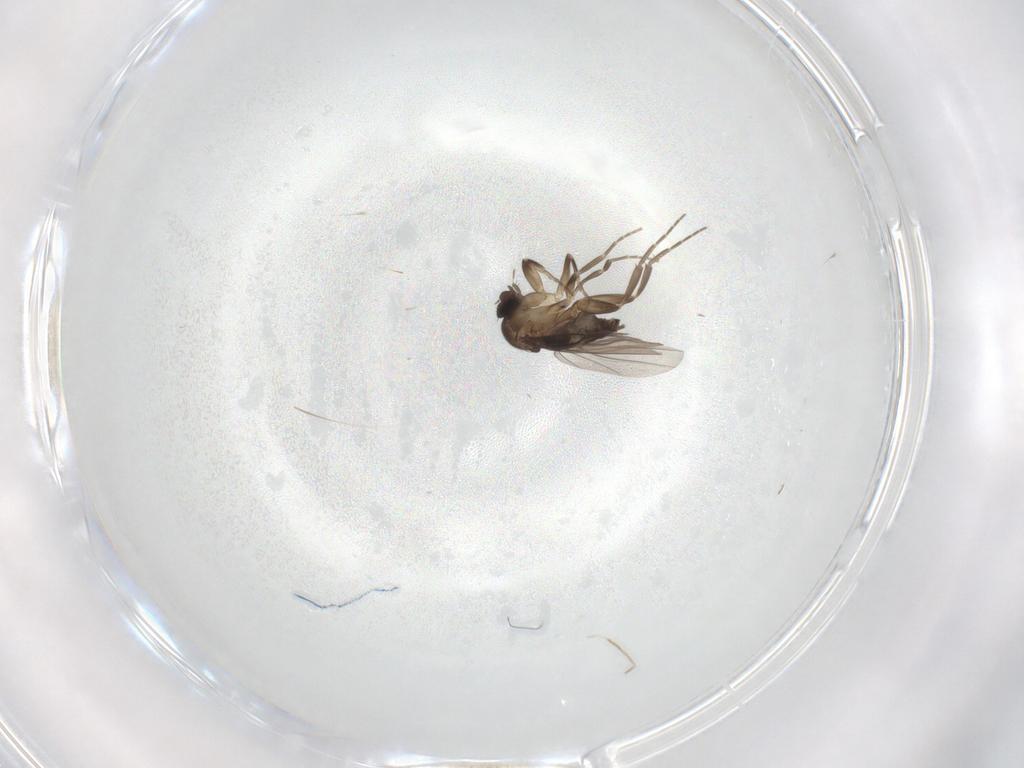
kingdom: Animalia
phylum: Arthropoda
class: Insecta
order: Diptera
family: Phoridae
